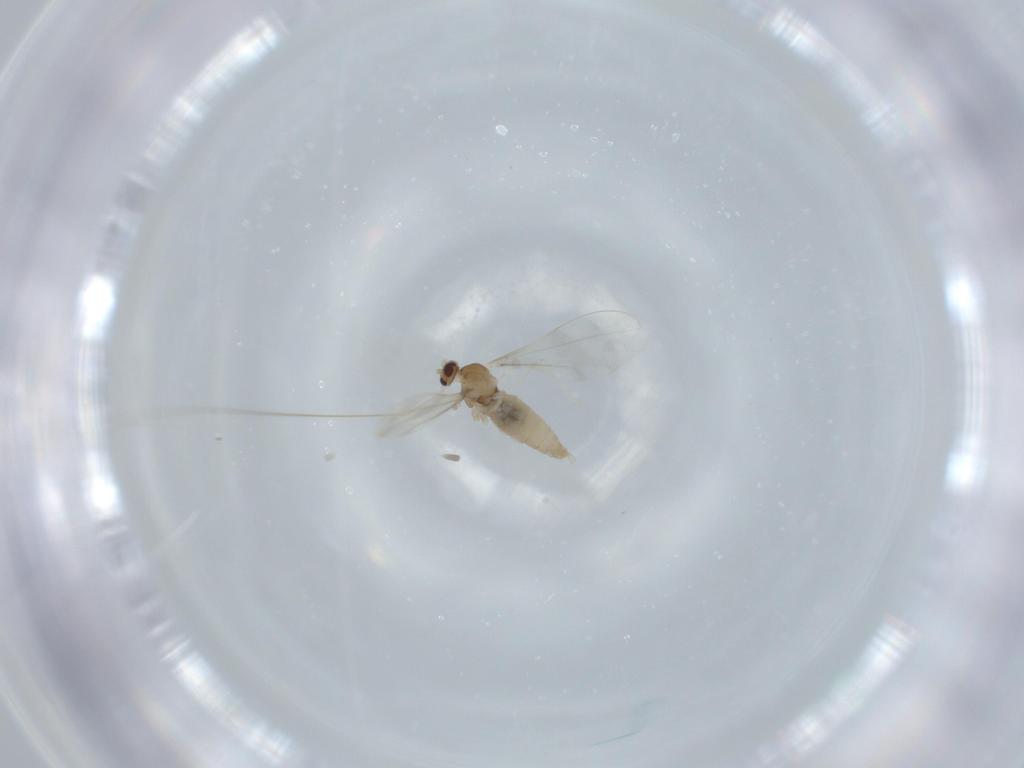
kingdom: Animalia
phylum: Arthropoda
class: Insecta
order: Diptera
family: Cecidomyiidae
